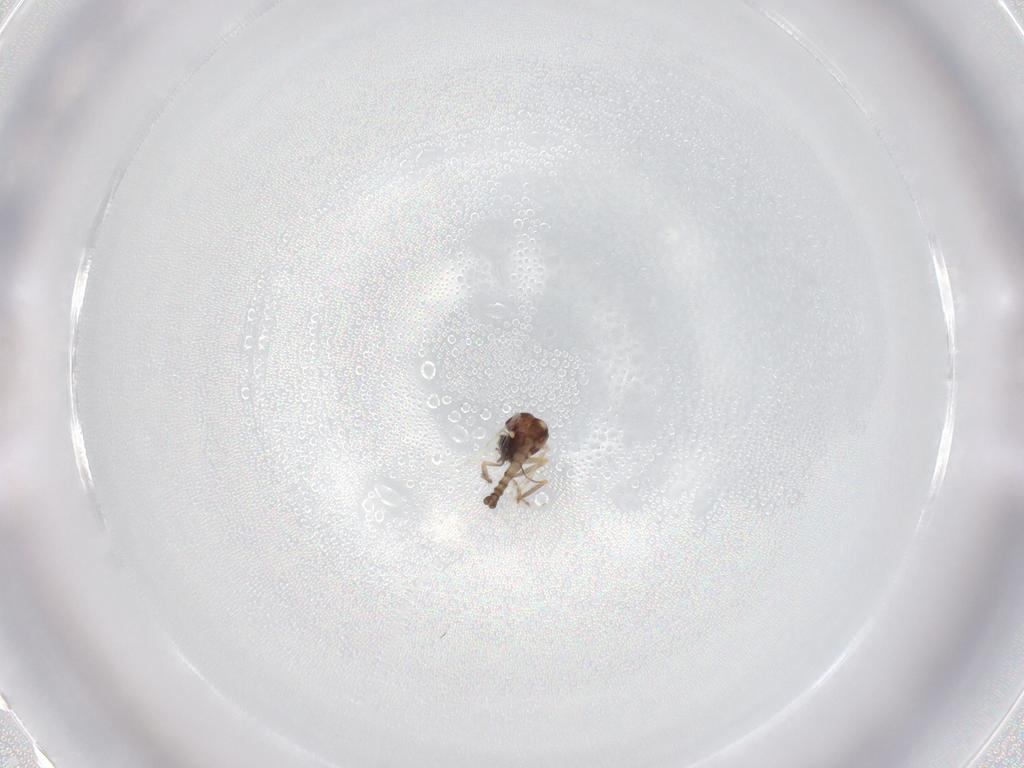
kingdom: Animalia
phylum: Arthropoda
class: Insecta
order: Diptera
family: Ceratopogonidae
